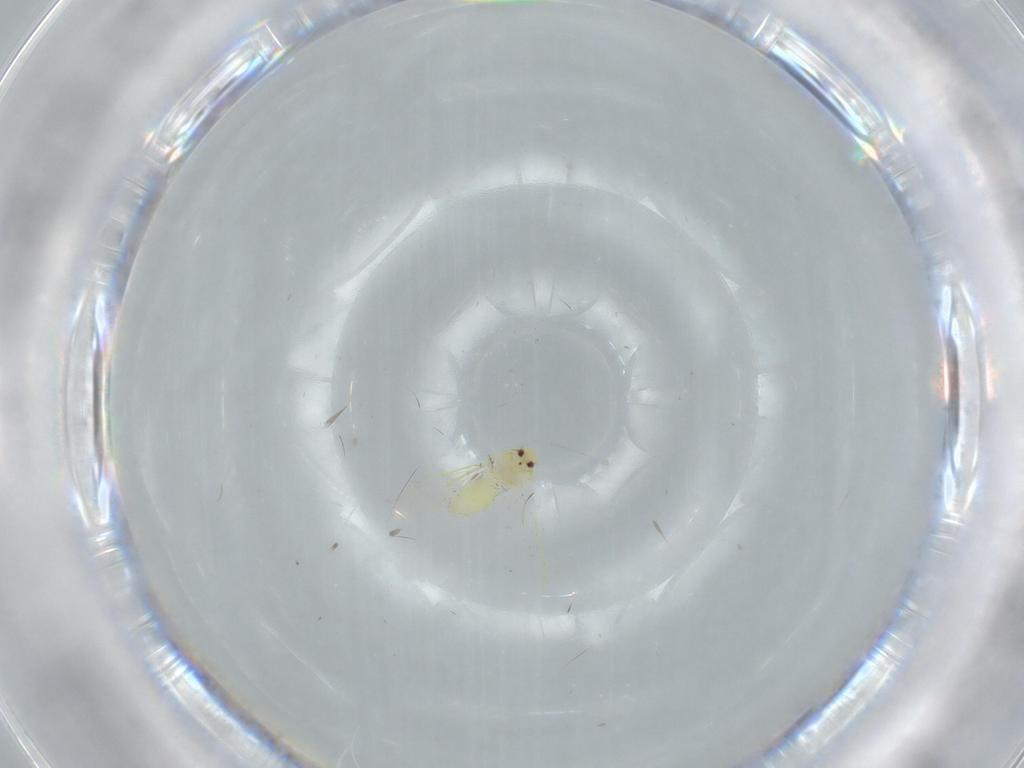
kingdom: Animalia
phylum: Arthropoda
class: Insecta
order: Hemiptera
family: Aleyrodidae
